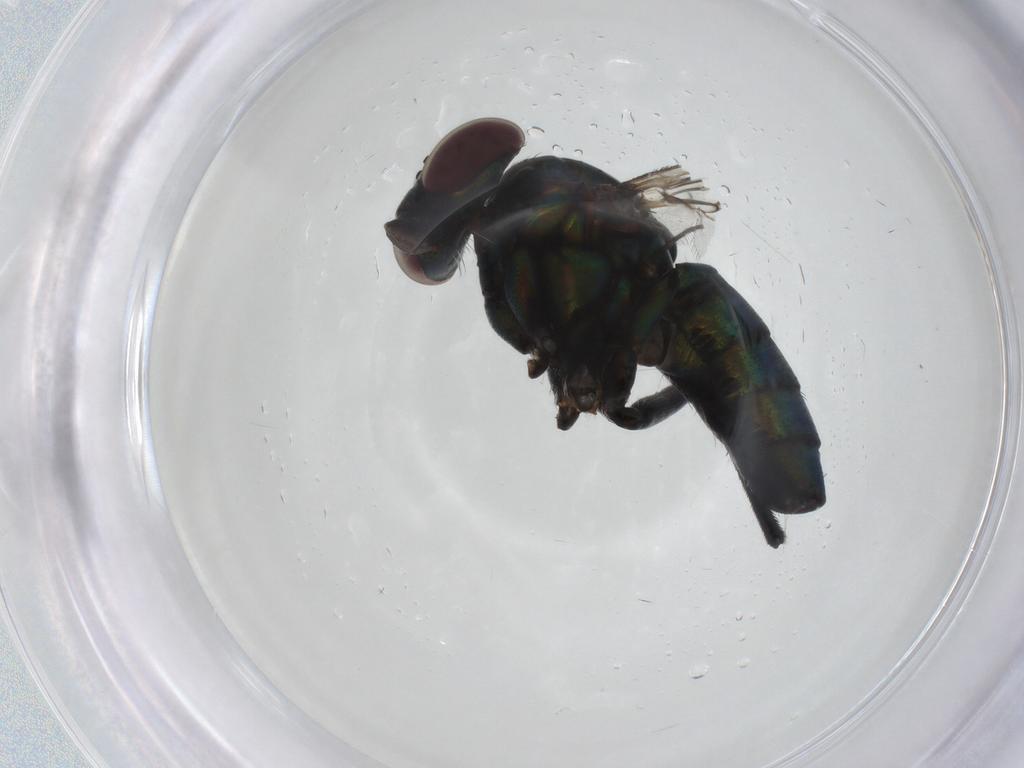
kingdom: Animalia
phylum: Arthropoda
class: Insecta
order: Diptera
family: Dolichopodidae
